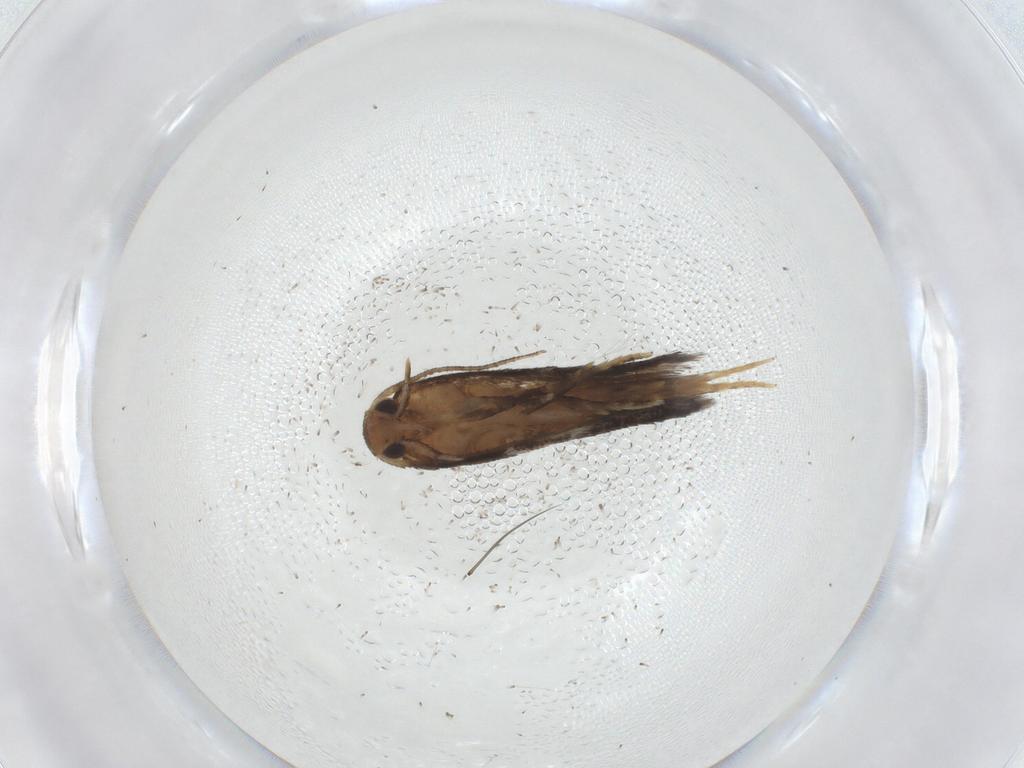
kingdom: Animalia
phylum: Arthropoda
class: Insecta
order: Lepidoptera
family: Elachistidae
